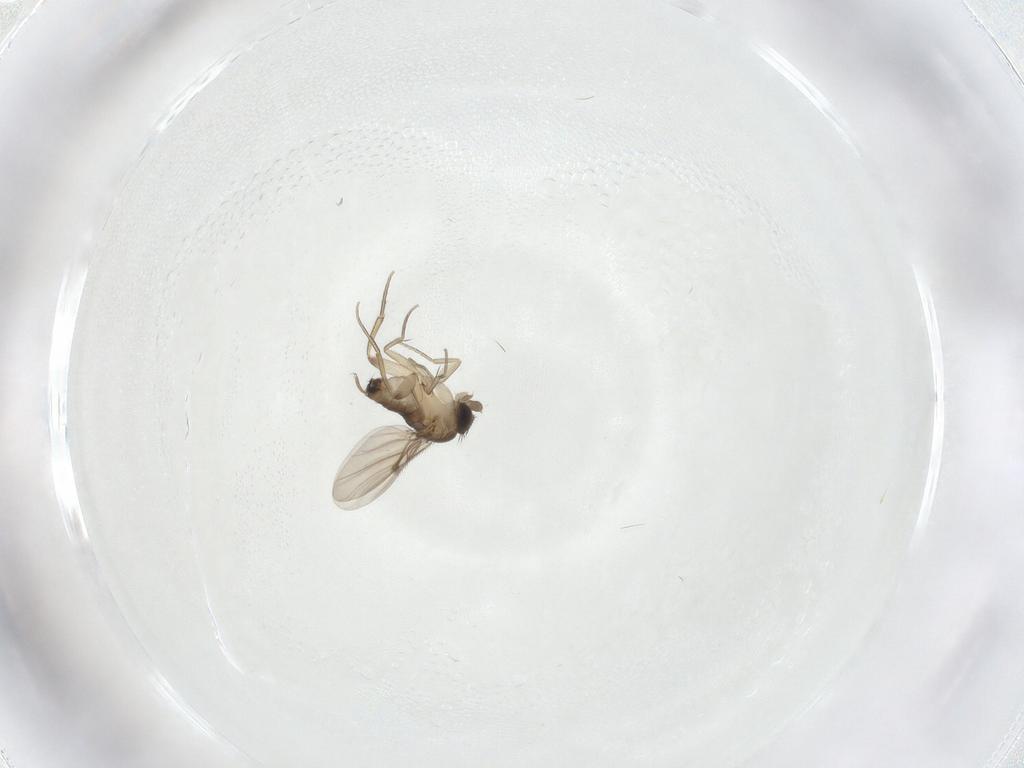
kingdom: Animalia
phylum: Arthropoda
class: Insecta
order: Diptera
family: Phoridae
